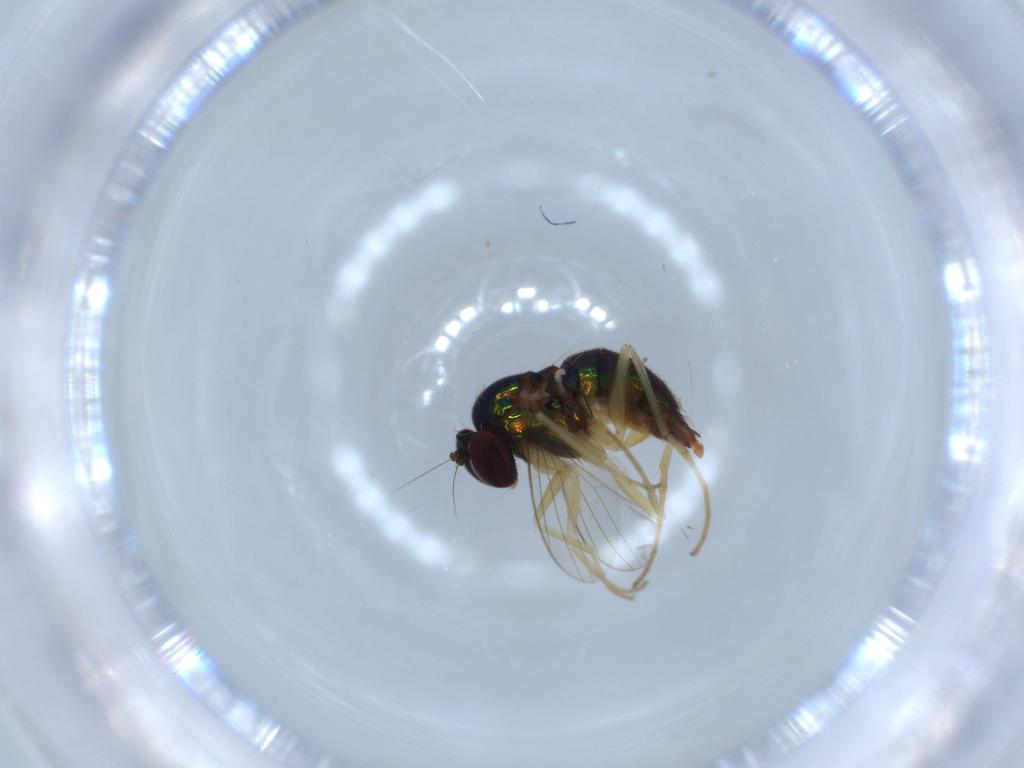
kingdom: Animalia
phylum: Arthropoda
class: Insecta
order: Diptera
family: Dolichopodidae
